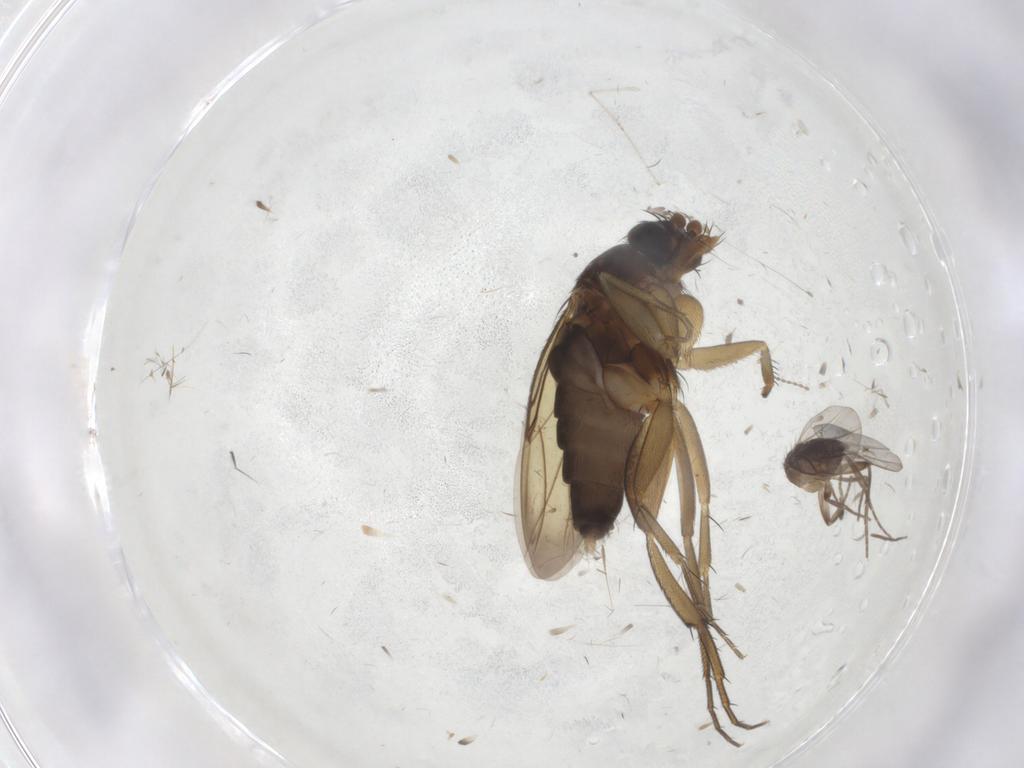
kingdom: Animalia
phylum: Arthropoda
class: Insecta
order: Diptera
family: Phoridae
